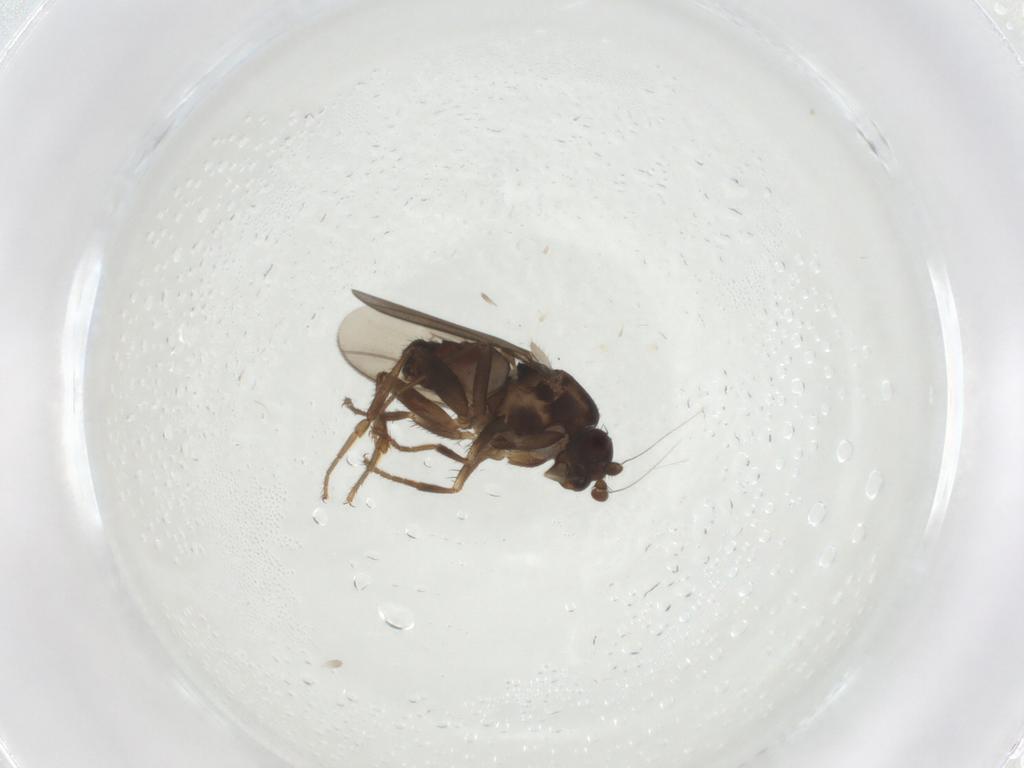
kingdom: Animalia
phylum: Arthropoda
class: Insecta
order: Diptera
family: Sphaeroceridae
